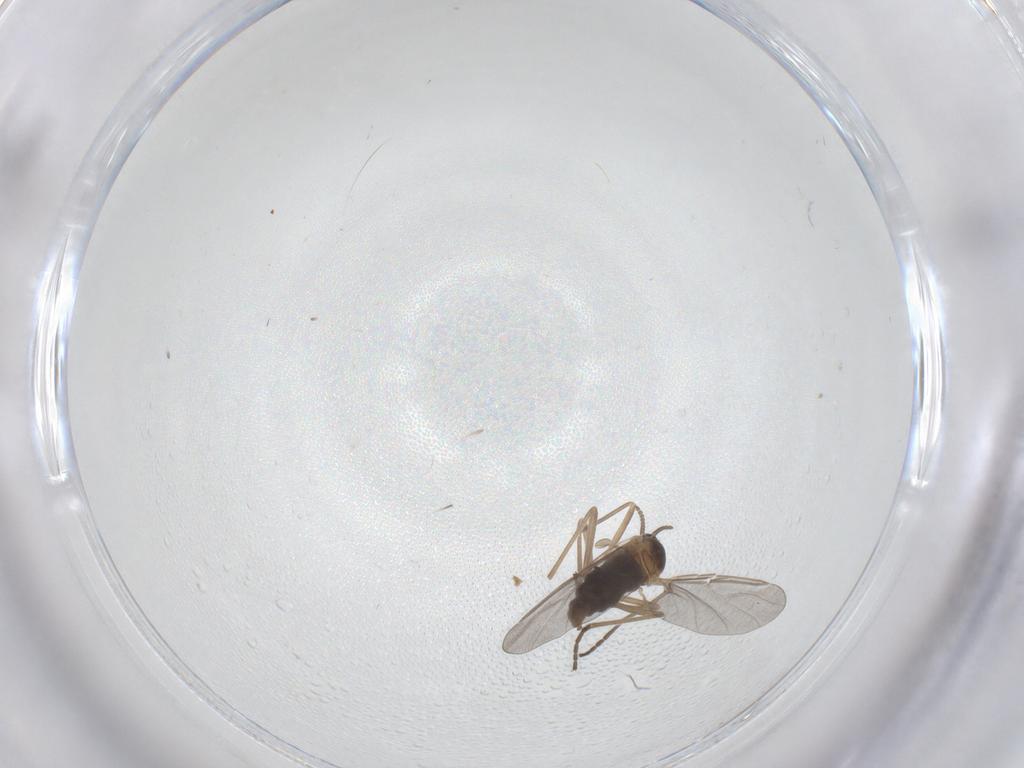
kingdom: Animalia
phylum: Arthropoda
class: Insecta
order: Diptera
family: Cecidomyiidae
